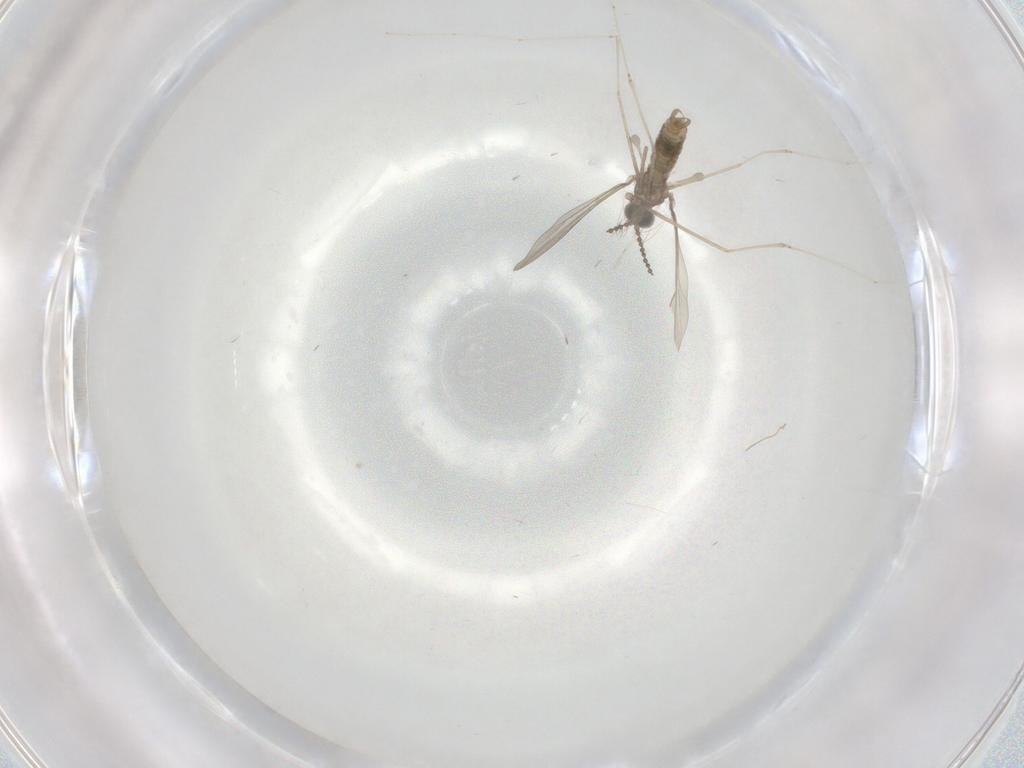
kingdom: Animalia
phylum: Arthropoda
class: Insecta
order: Diptera
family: Cecidomyiidae
